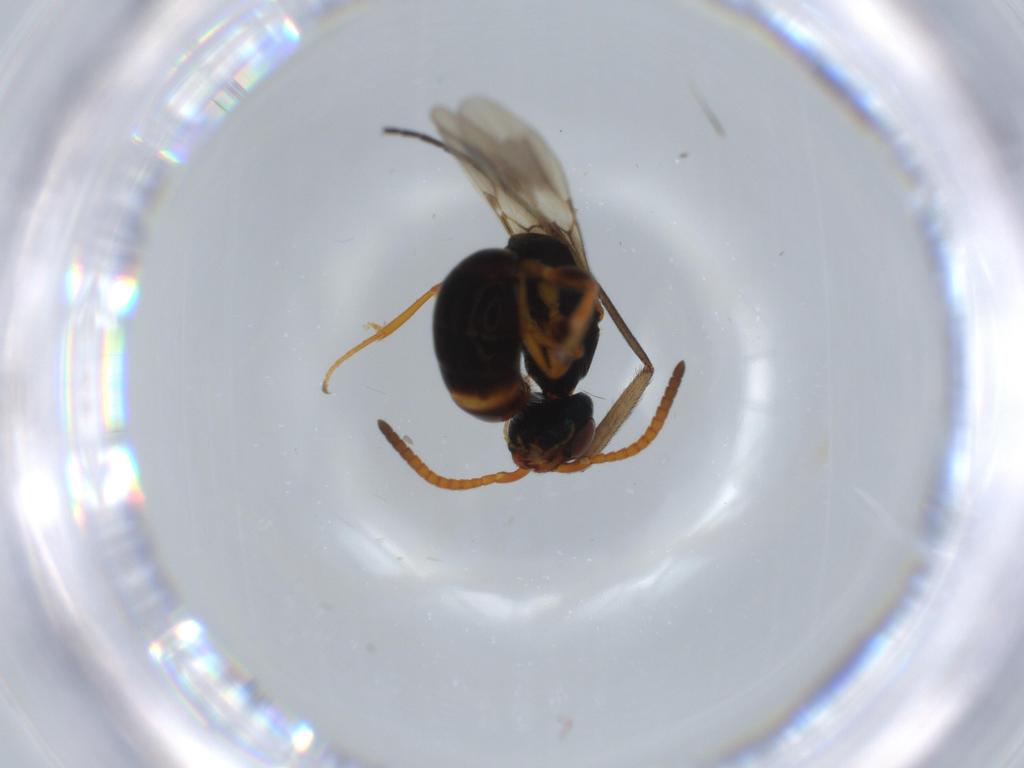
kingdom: Animalia
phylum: Arthropoda
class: Insecta
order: Hymenoptera
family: Bethylidae
